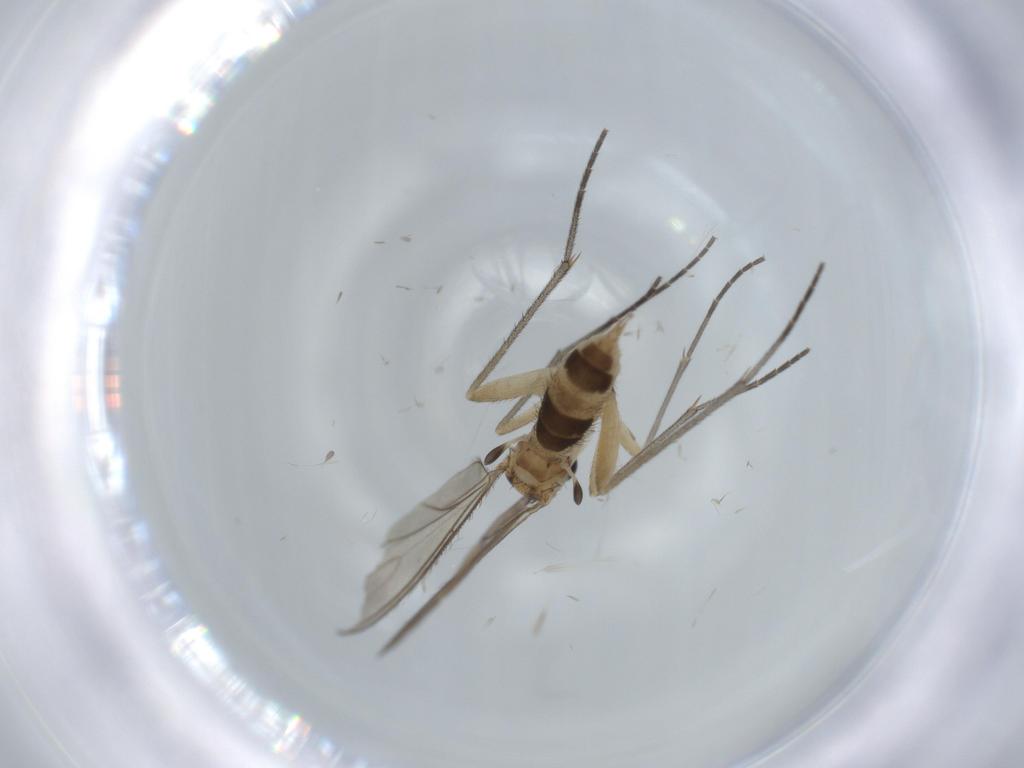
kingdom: Animalia
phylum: Arthropoda
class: Insecta
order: Diptera
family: Sciaridae
